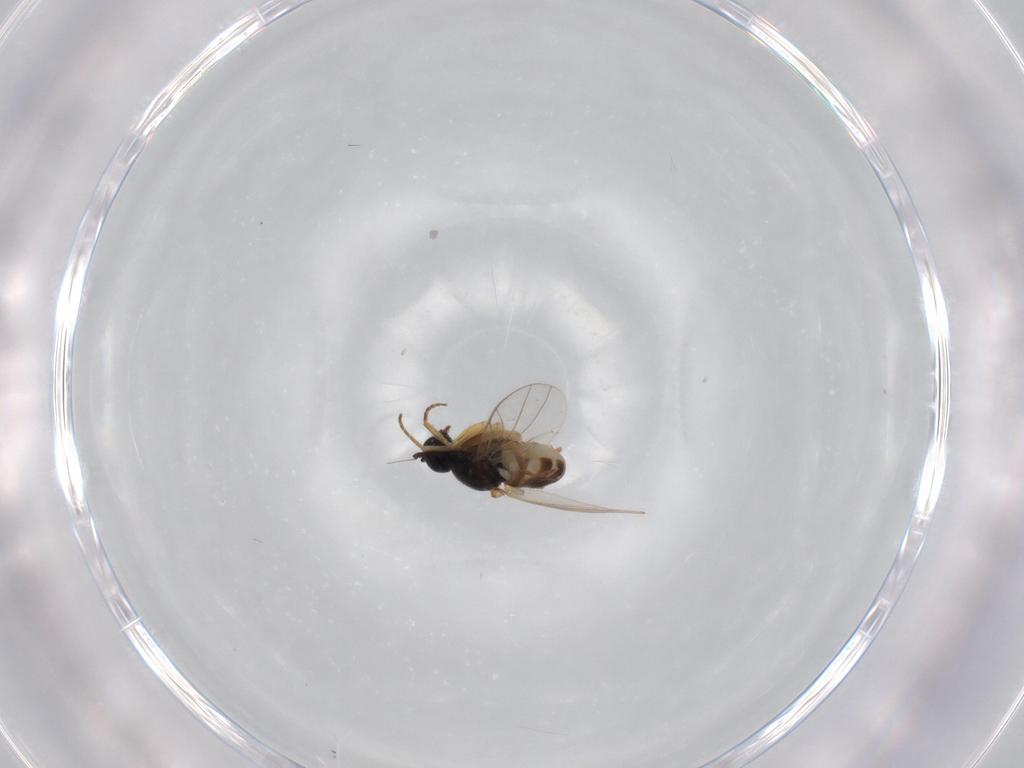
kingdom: Animalia
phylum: Arthropoda
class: Insecta
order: Diptera
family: Hybotidae
